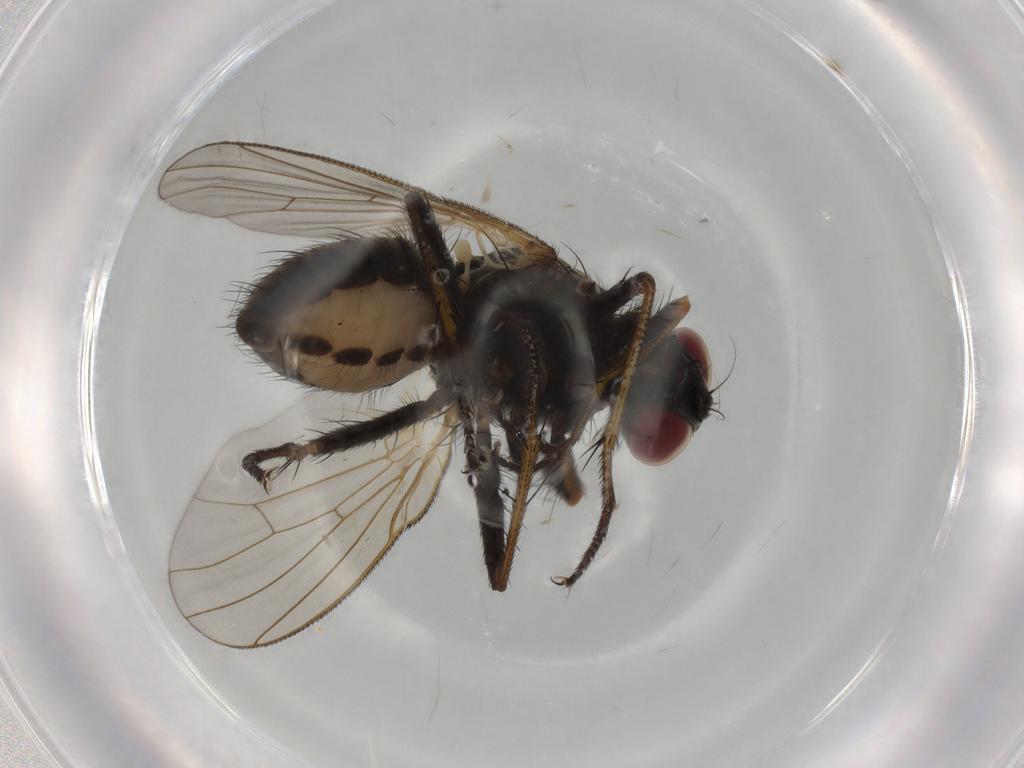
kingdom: Animalia
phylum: Arthropoda
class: Insecta
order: Diptera
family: Muscidae
